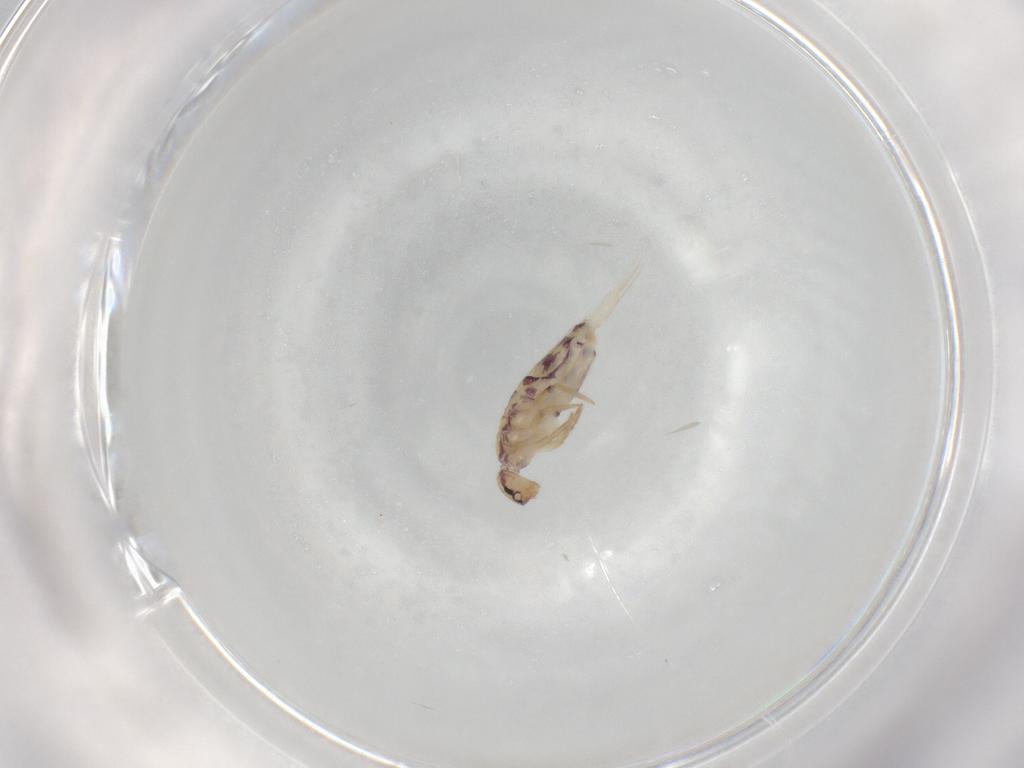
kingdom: Animalia
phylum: Arthropoda
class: Collembola
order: Entomobryomorpha
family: Entomobryidae
